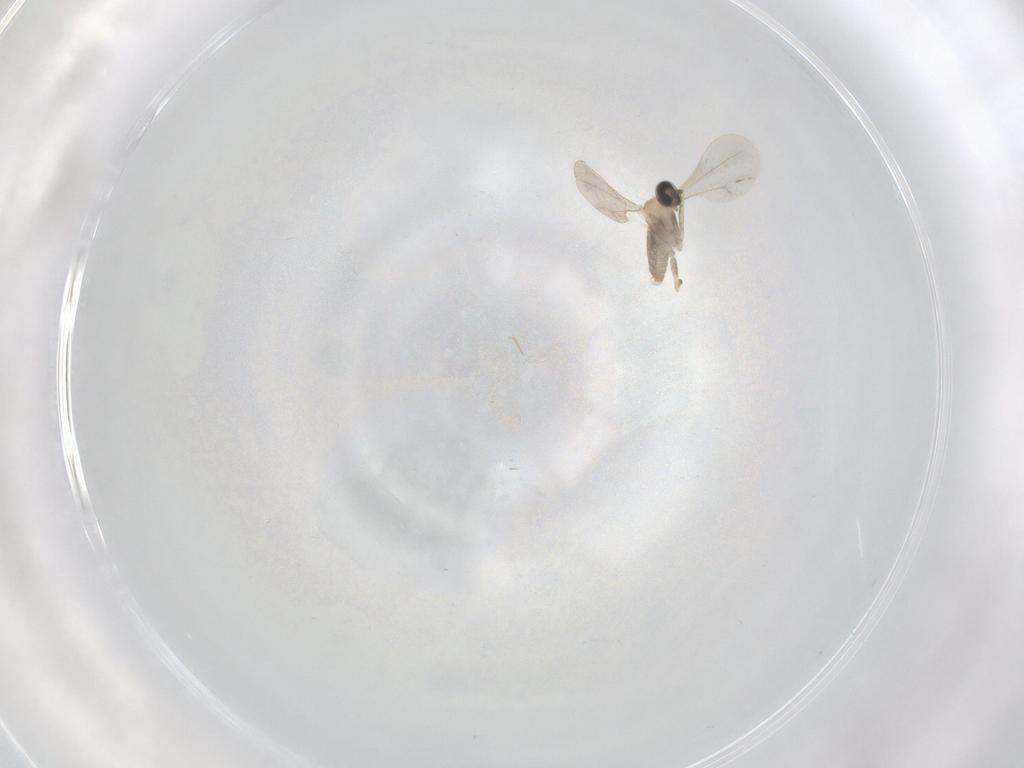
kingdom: Animalia
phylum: Arthropoda
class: Insecta
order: Diptera
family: Cecidomyiidae
